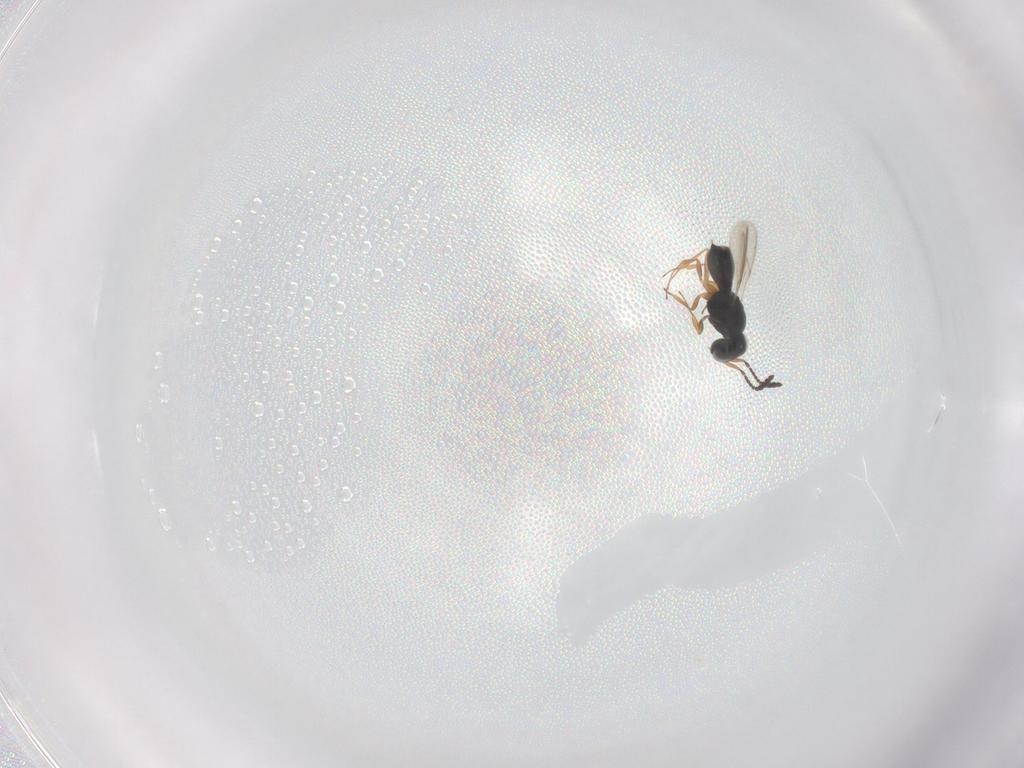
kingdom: Animalia
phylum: Arthropoda
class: Insecta
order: Hymenoptera
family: Scelionidae
